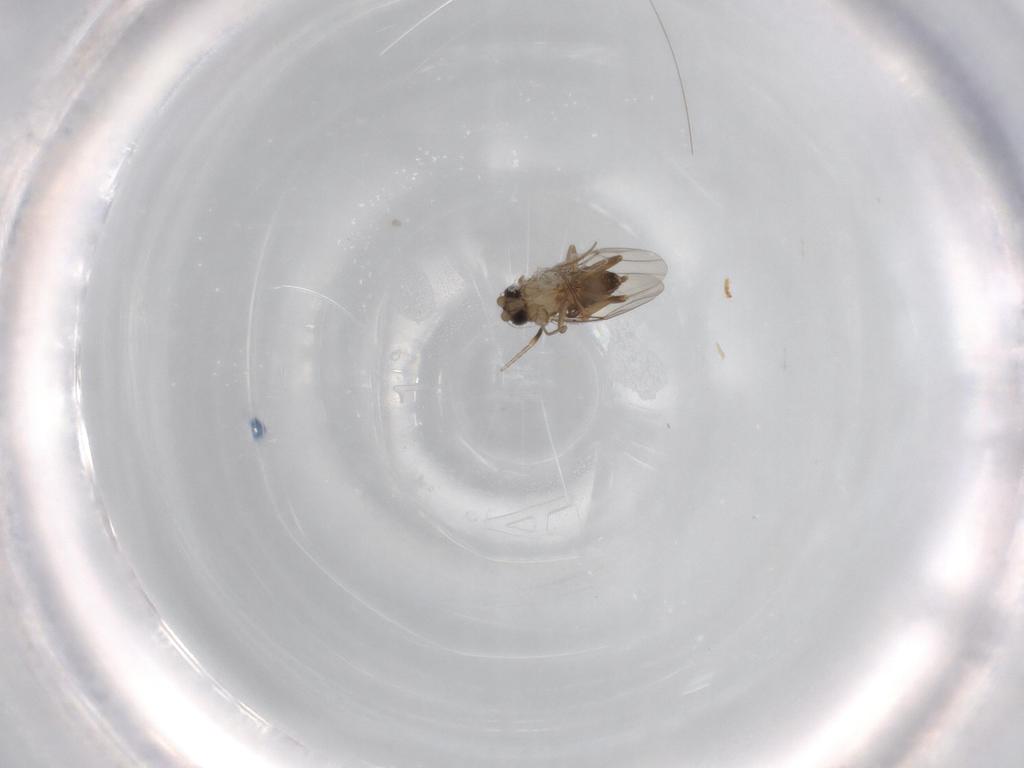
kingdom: Animalia
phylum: Arthropoda
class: Insecta
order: Diptera
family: Phoridae
